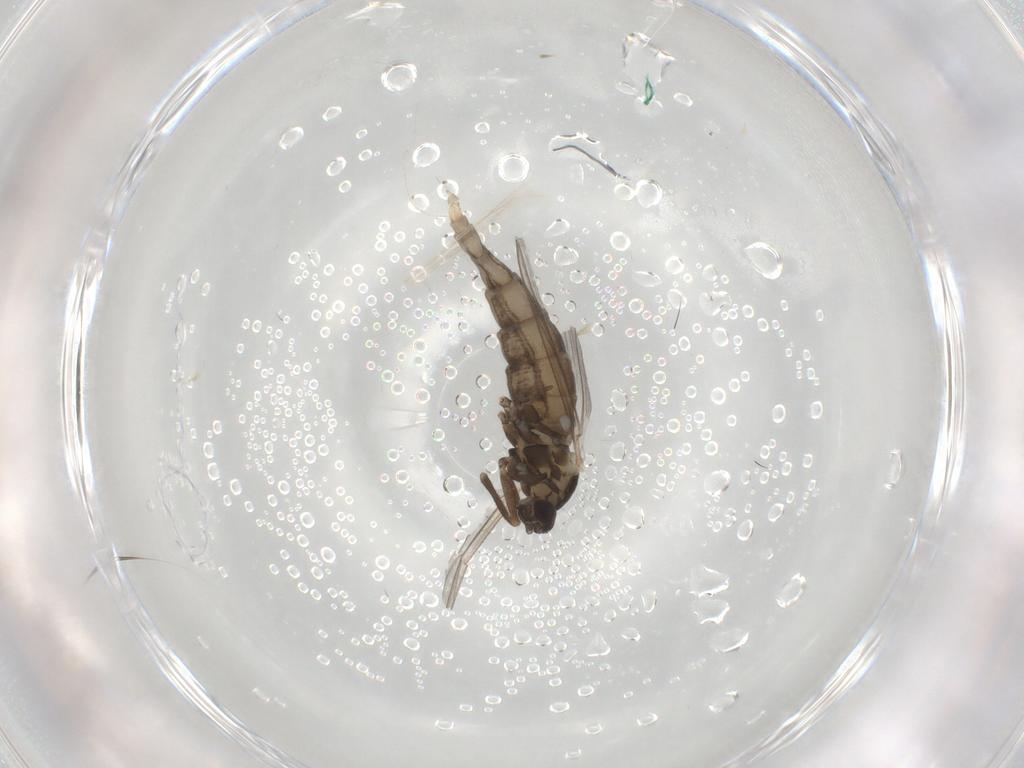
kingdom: Animalia
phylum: Arthropoda
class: Insecta
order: Diptera
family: Cecidomyiidae
